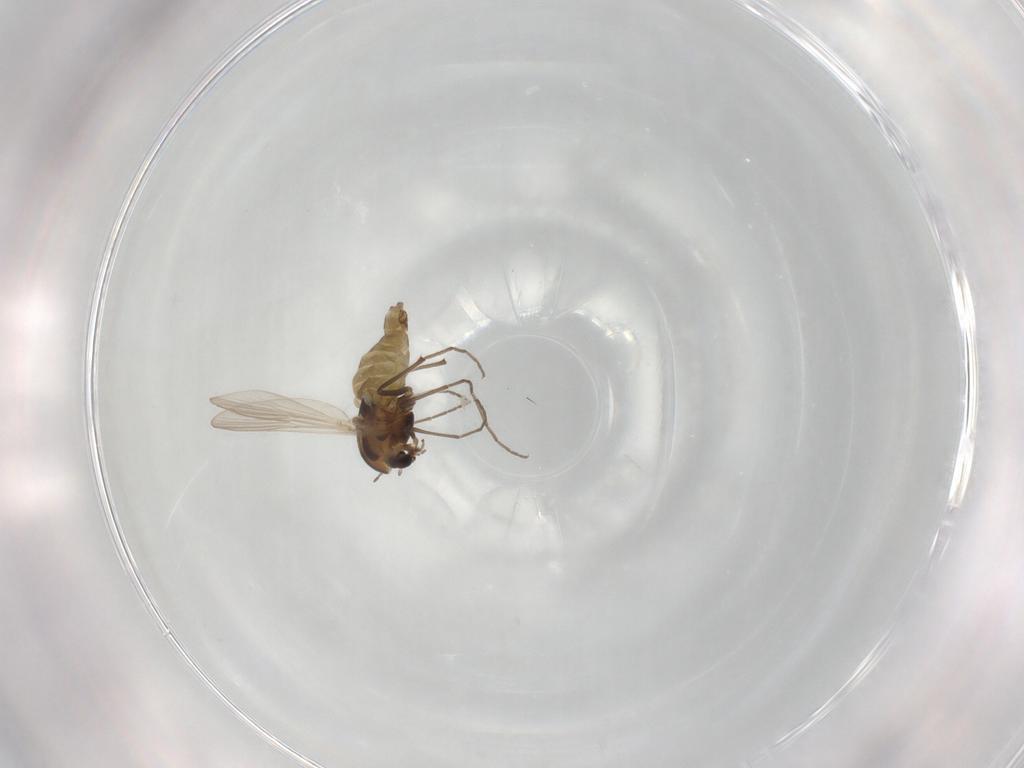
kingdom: Animalia
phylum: Arthropoda
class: Insecta
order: Diptera
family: Chironomidae
